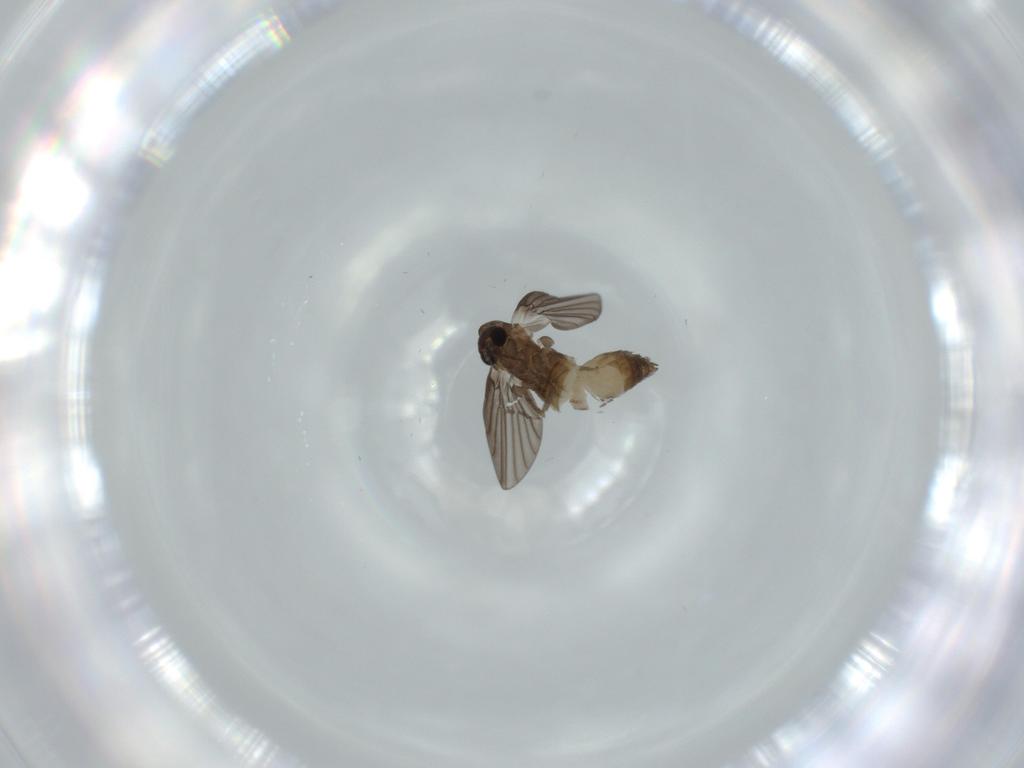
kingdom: Animalia
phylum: Arthropoda
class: Insecta
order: Diptera
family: Psychodidae
